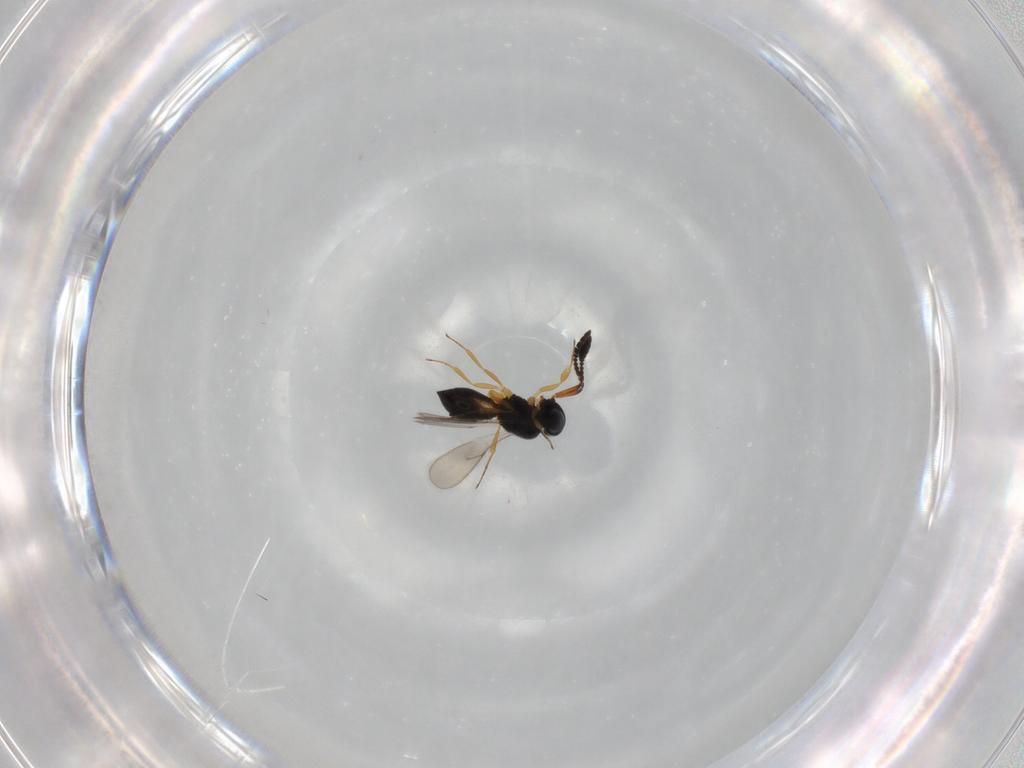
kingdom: Animalia
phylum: Arthropoda
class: Insecta
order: Hymenoptera
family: Scelionidae
